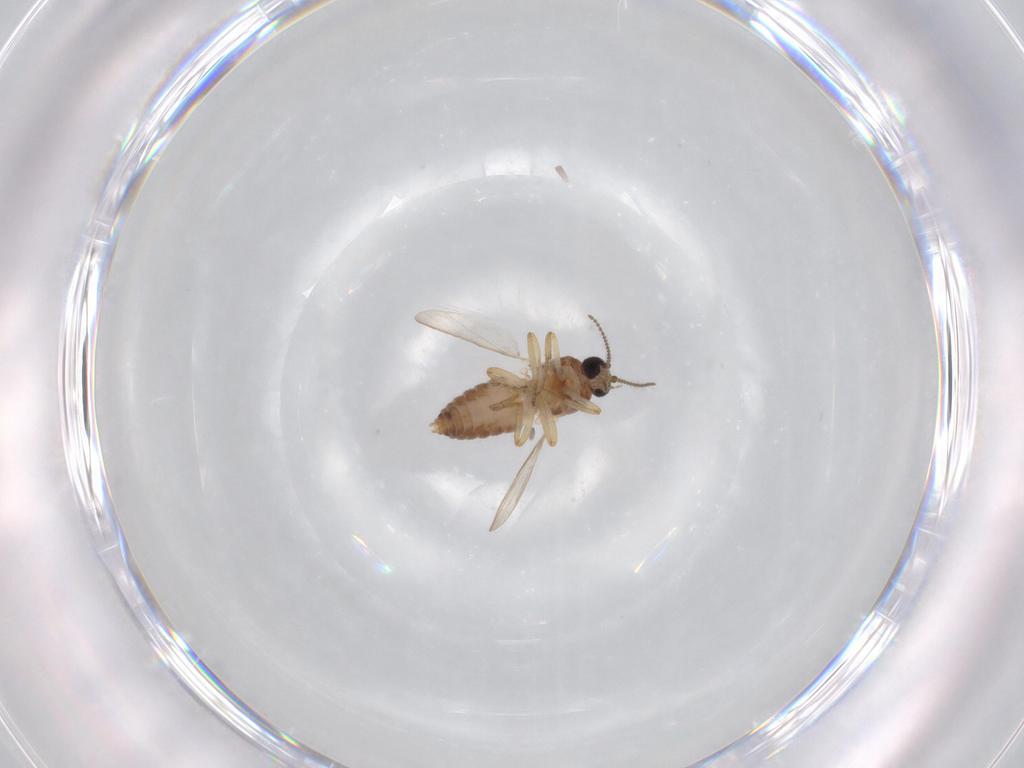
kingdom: Animalia
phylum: Arthropoda
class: Insecta
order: Diptera
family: Ceratopogonidae
